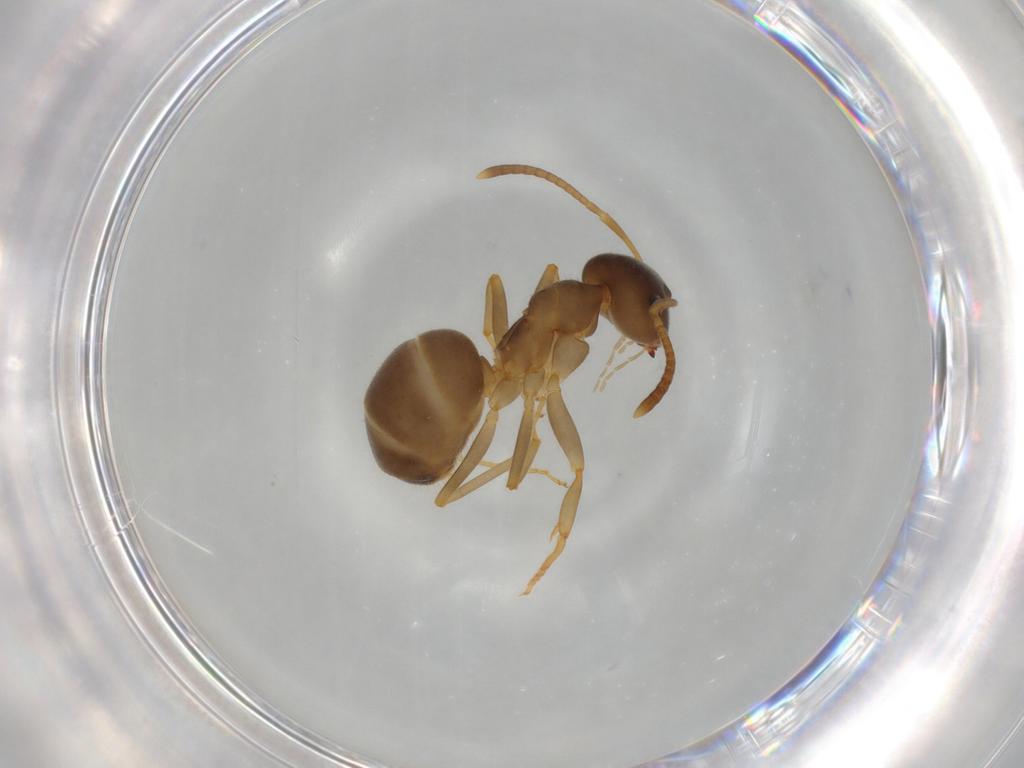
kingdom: Animalia
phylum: Arthropoda
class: Insecta
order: Hymenoptera
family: Formicidae
